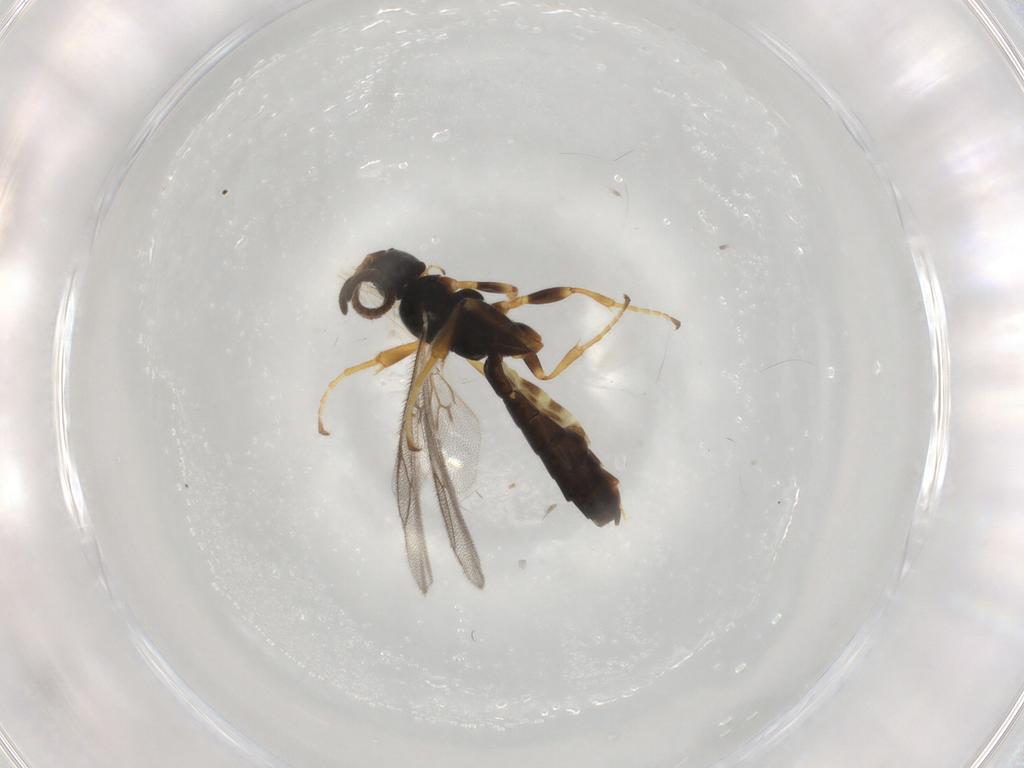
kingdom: Animalia
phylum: Arthropoda
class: Insecta
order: Hymenoptera
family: Ichneumonidae
